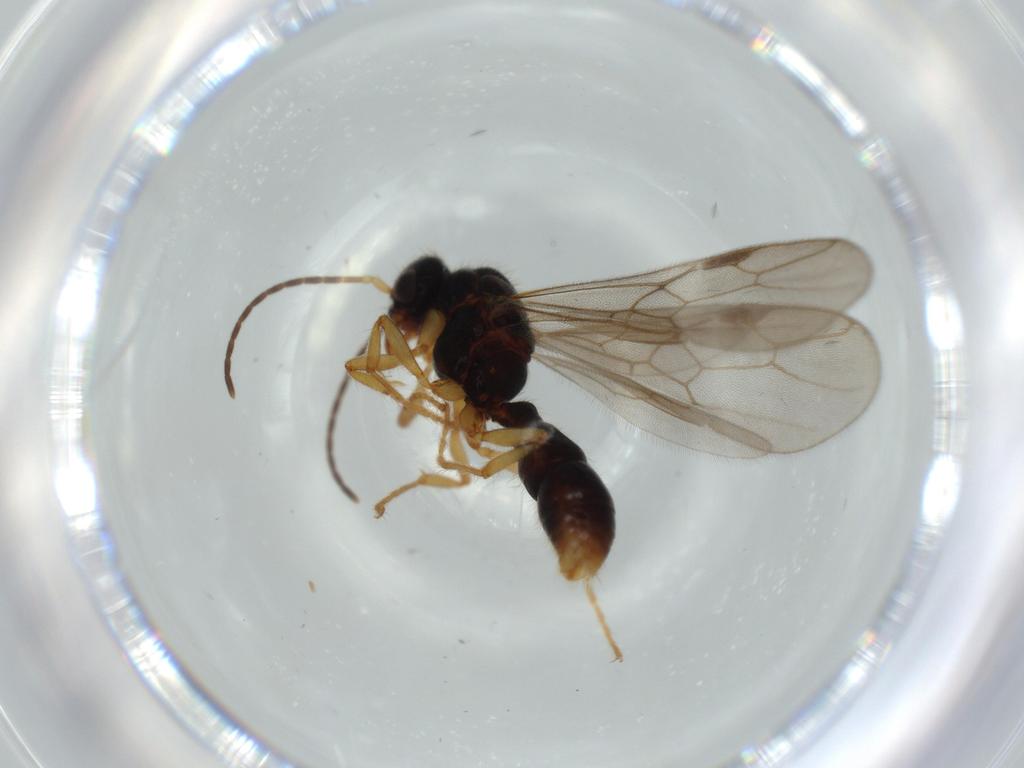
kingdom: Animalia
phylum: Arthropoda
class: Insecta
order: Hymenoptera
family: Formicidae
